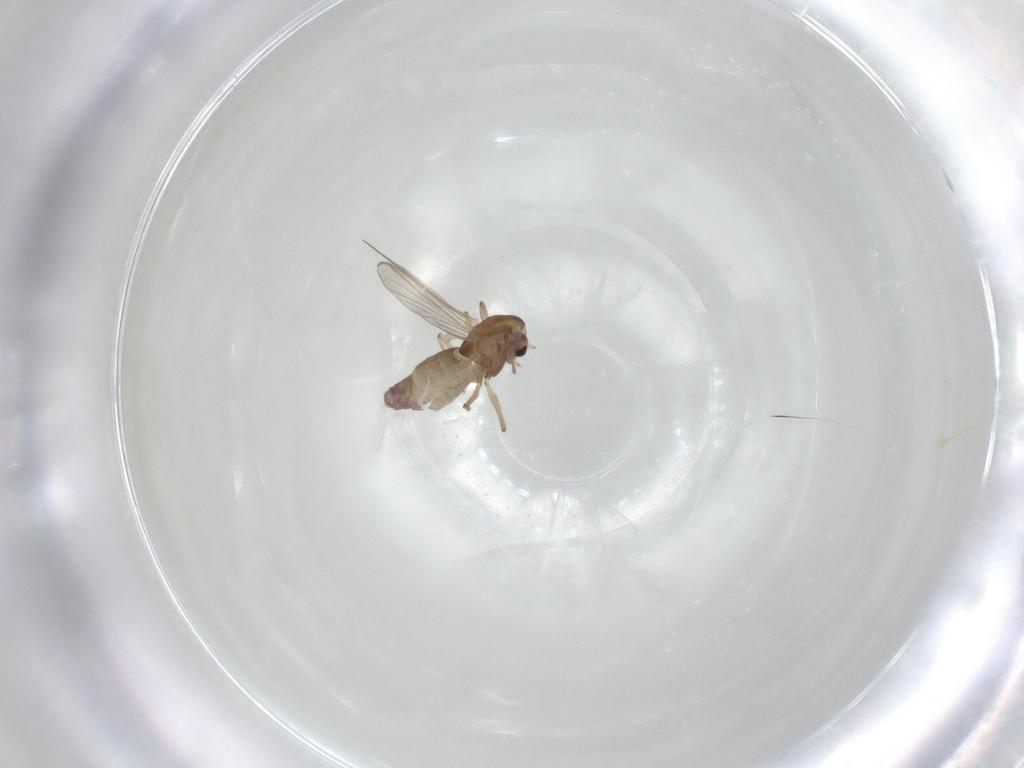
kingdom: Animalia
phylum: Arthropoda
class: Insecta
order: Diptera
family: Chironomidae
